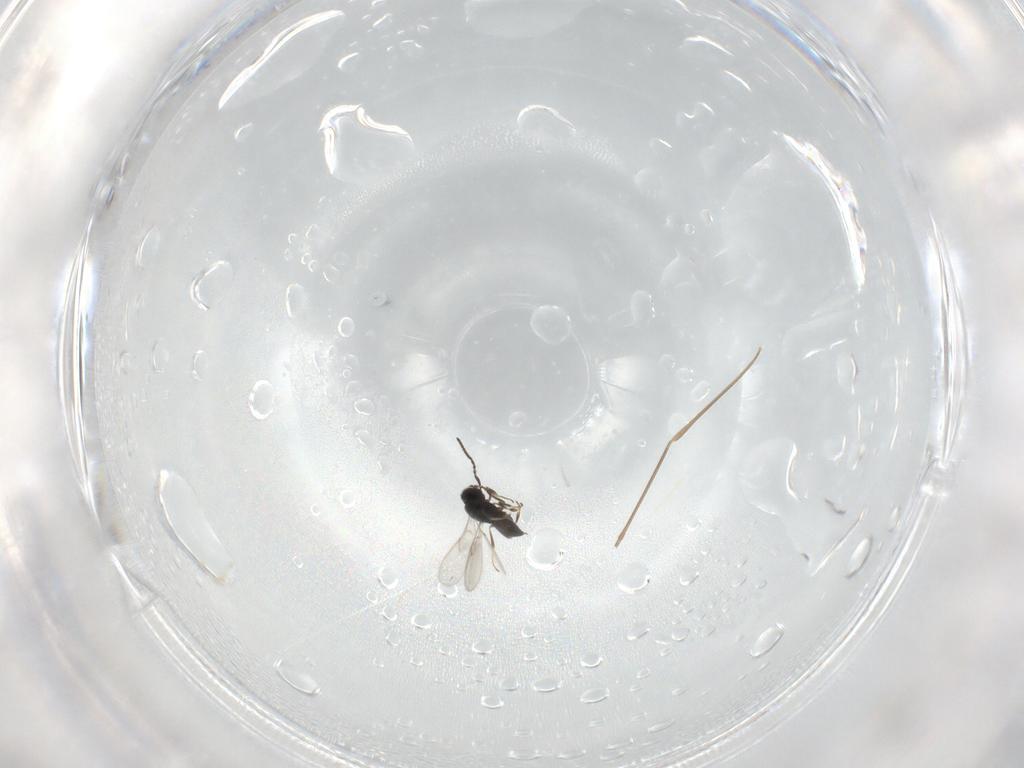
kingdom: Animalia
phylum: Arthropoda
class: Insecta
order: Hymenoptera
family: Scelionidae
